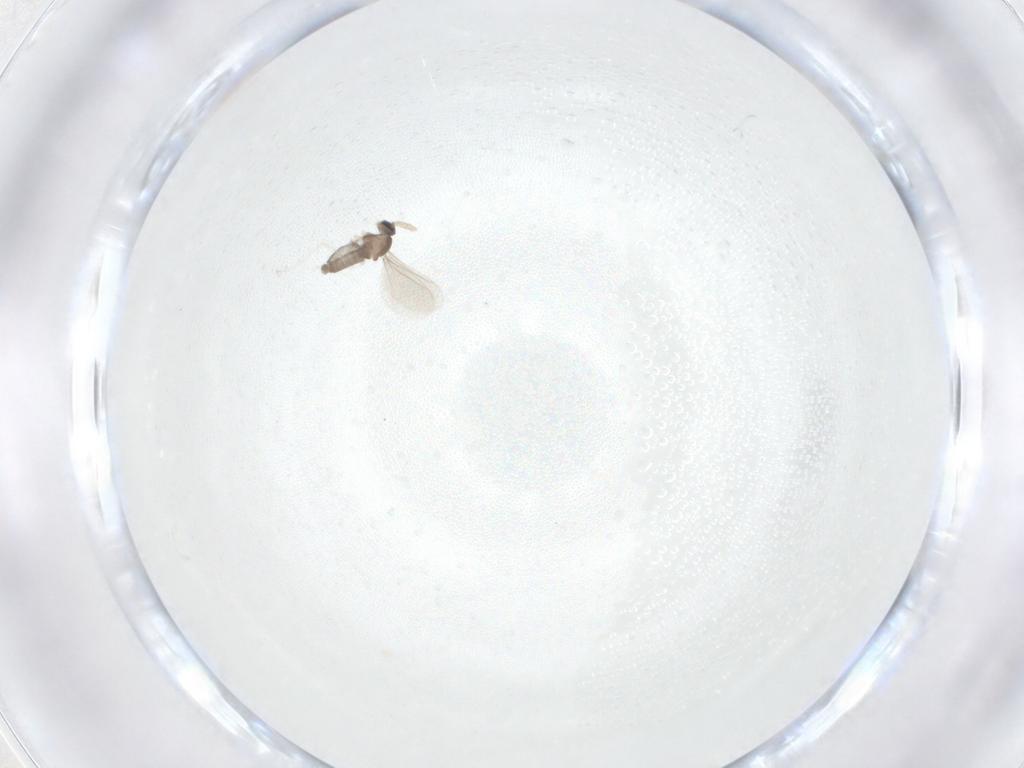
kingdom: Animalia
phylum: Arthropoda
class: Insecta
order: Diptera
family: Cecidomyiidae
